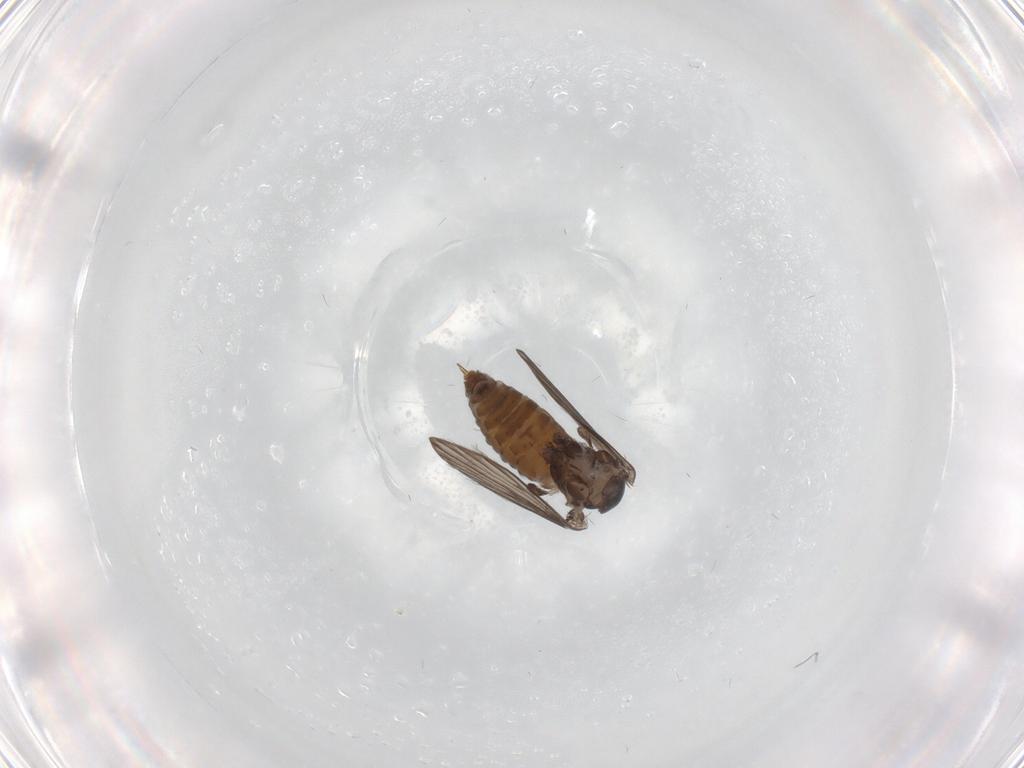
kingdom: Animalia
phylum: Arthropoda
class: Insecta
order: Diptera
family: Psychodidae
